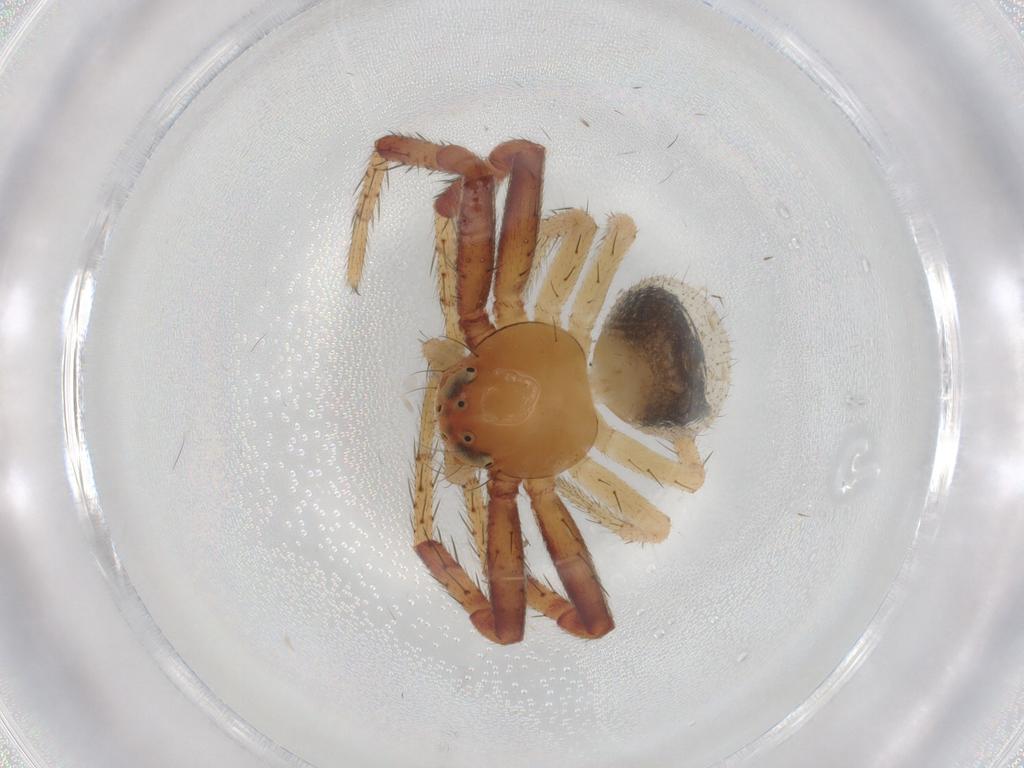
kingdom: Animalia
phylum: Arthropoda
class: Arachnida
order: Araneae
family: Thomisidae
